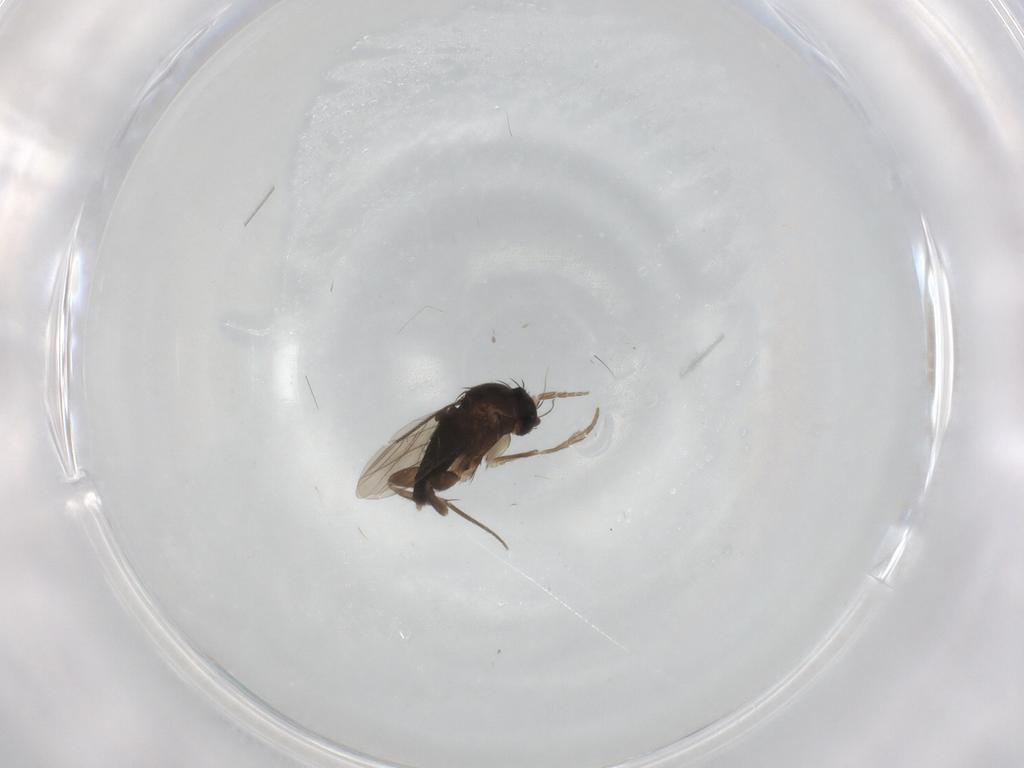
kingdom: Animalia
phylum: Arthropoda
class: Insecta
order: Diptera
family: Phoridae
